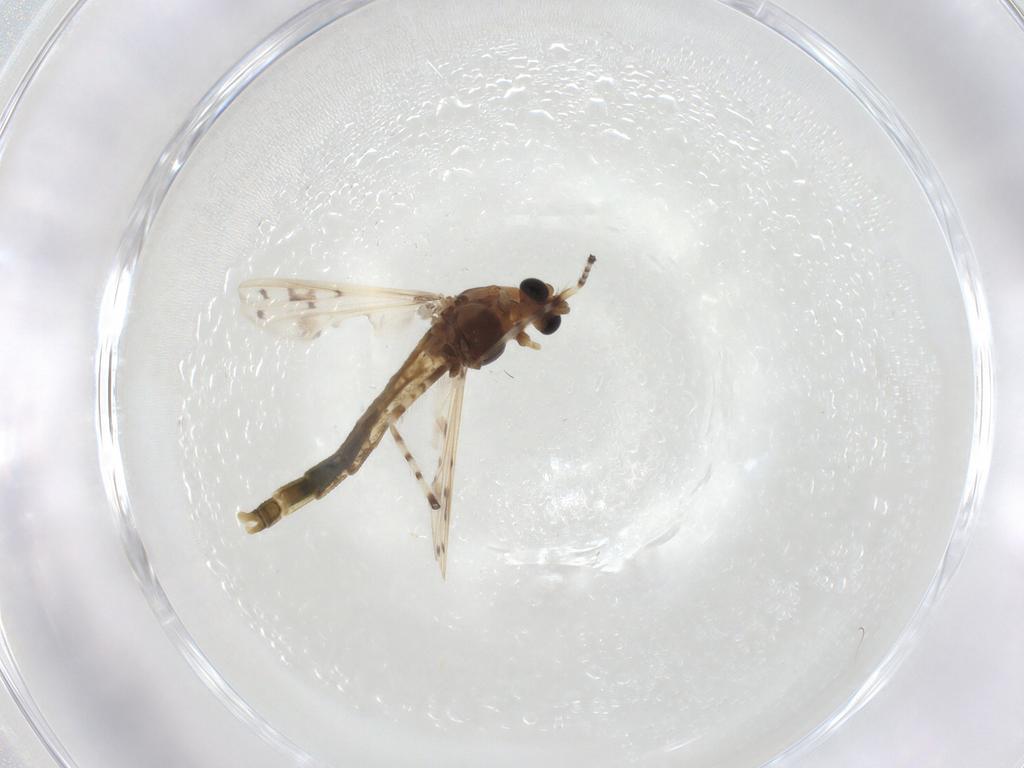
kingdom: Animalia
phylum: Arthropoda
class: Insecta
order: Diptera
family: Chironomidae
